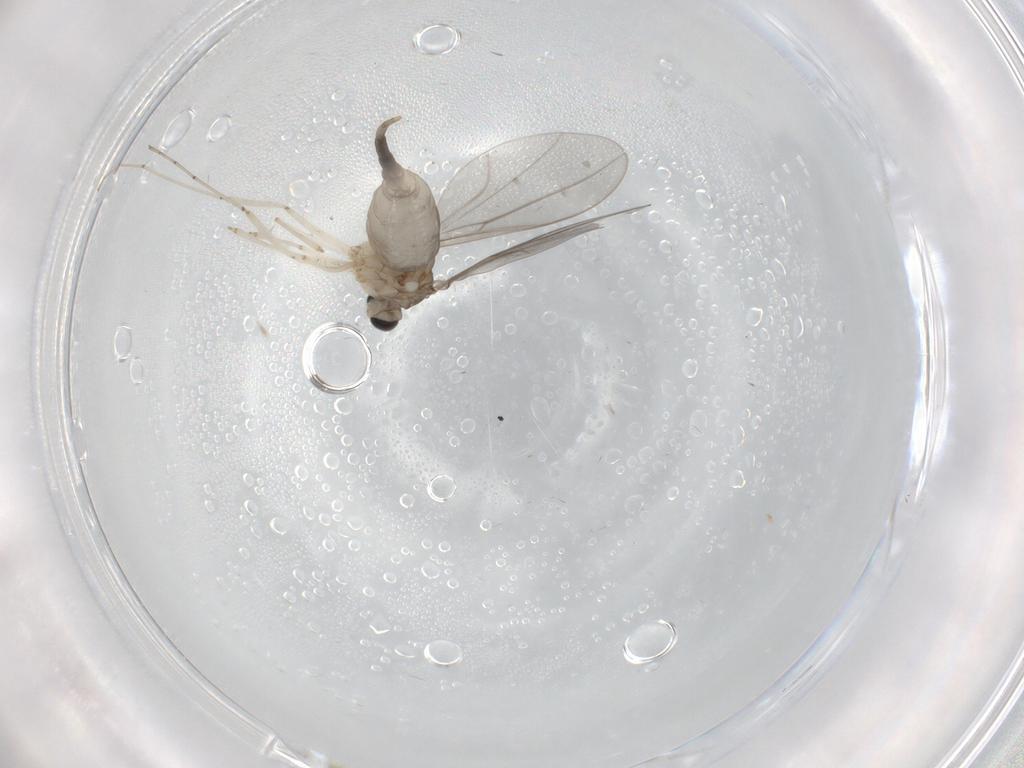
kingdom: Animalia
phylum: Arthropoda
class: Insecta
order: Diptera
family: Cecidomyiidae
